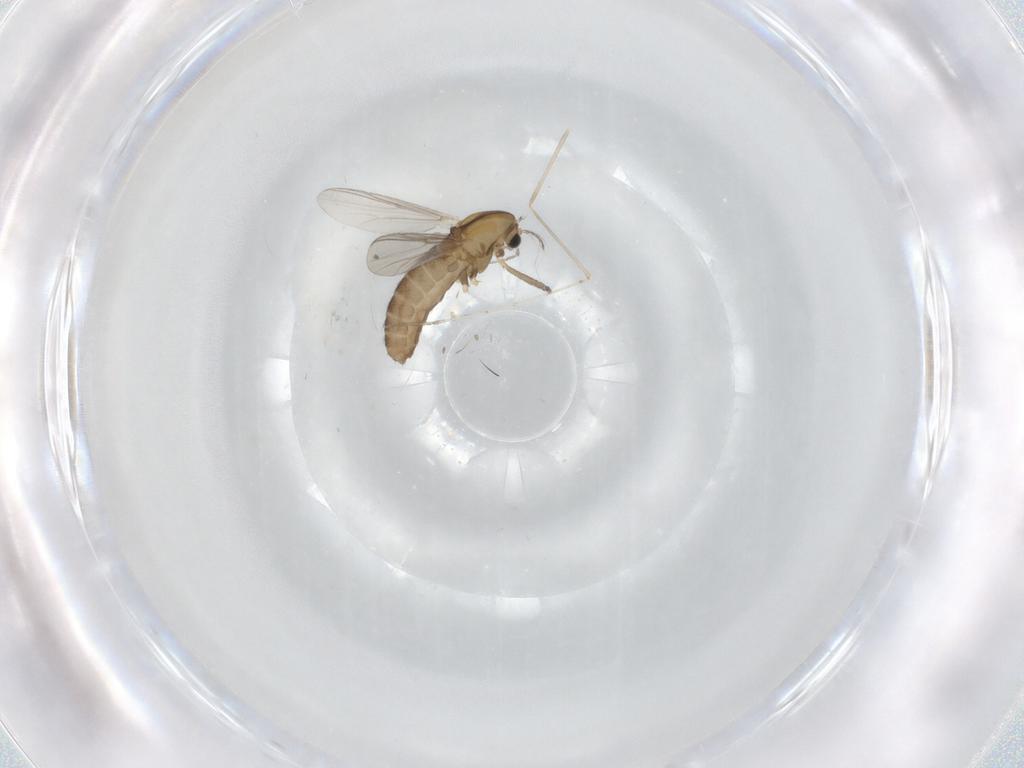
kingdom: Animalia
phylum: Arthropoda
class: Insecta
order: Diptera
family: Chironomidae
